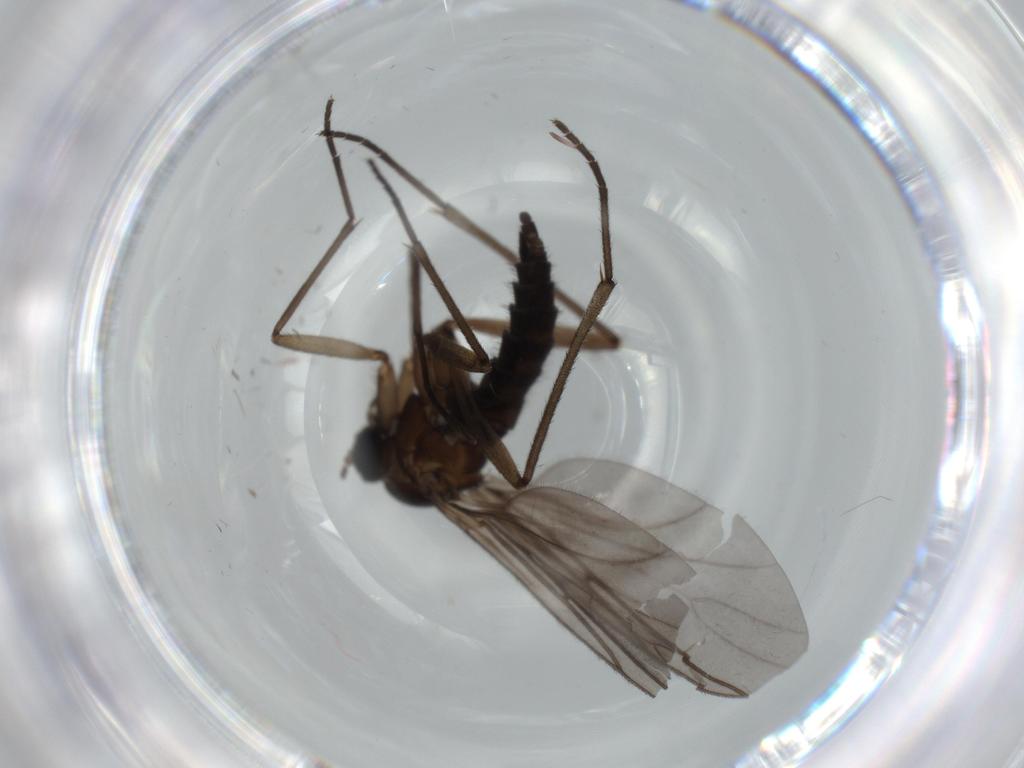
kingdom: Animalia
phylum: Arthropoda
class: Insecta
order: Diptera
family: Sciaridae
